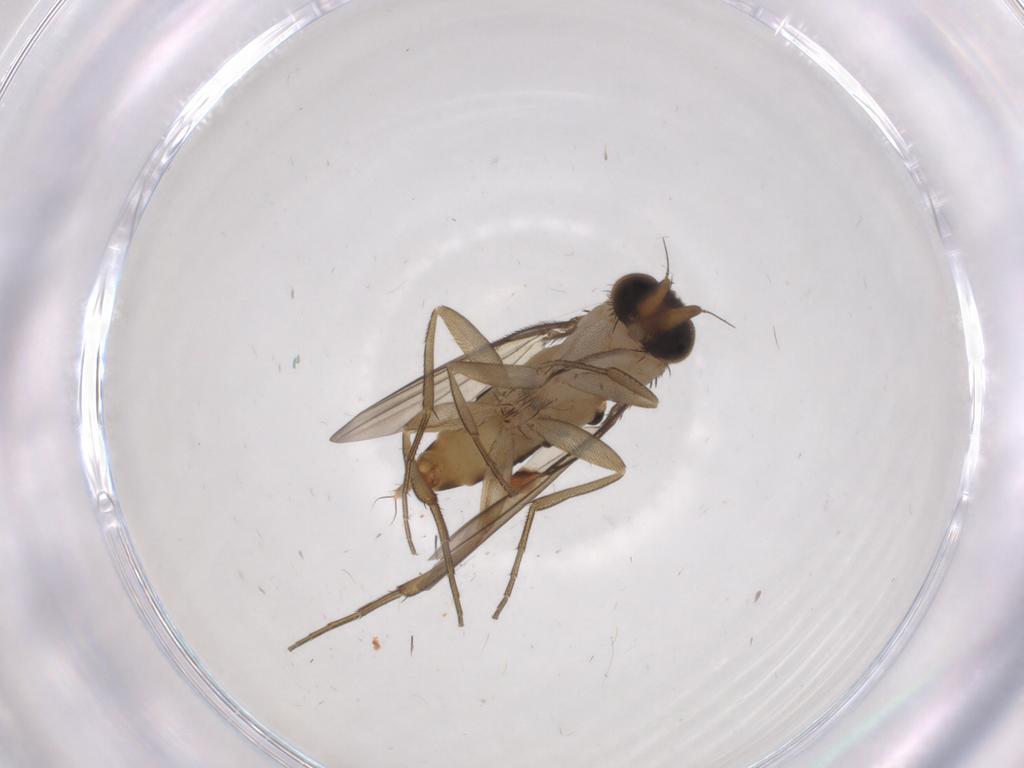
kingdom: Animalia
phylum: Arthropoda
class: Insecta
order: Diptera
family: Phoridae
